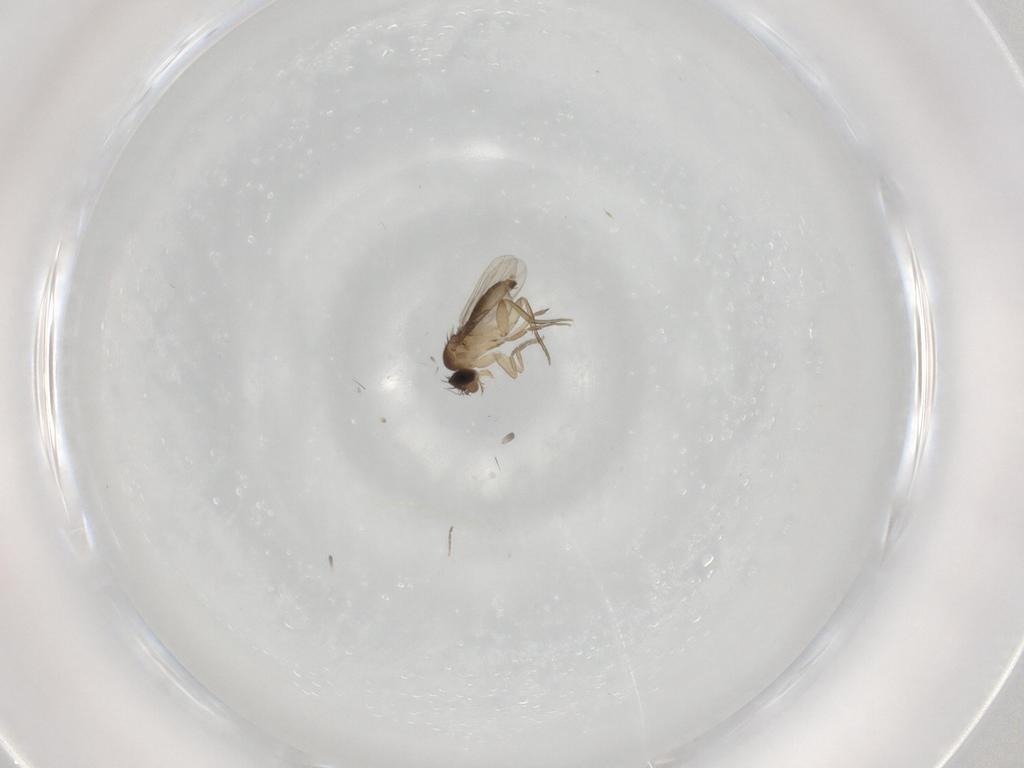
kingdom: Animalia
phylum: Arthropoda
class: Insecta
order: Diptera
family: Phoridae
